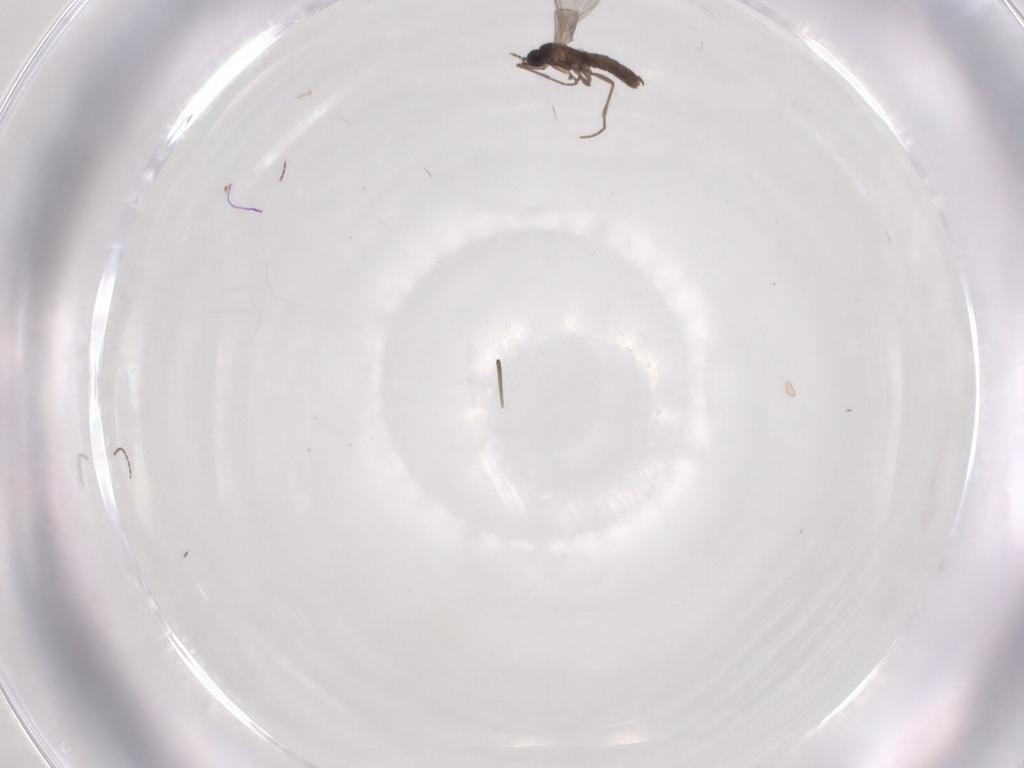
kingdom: Animalia
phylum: Arthropoda
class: Insecta
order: Diptera
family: Sciaridae
